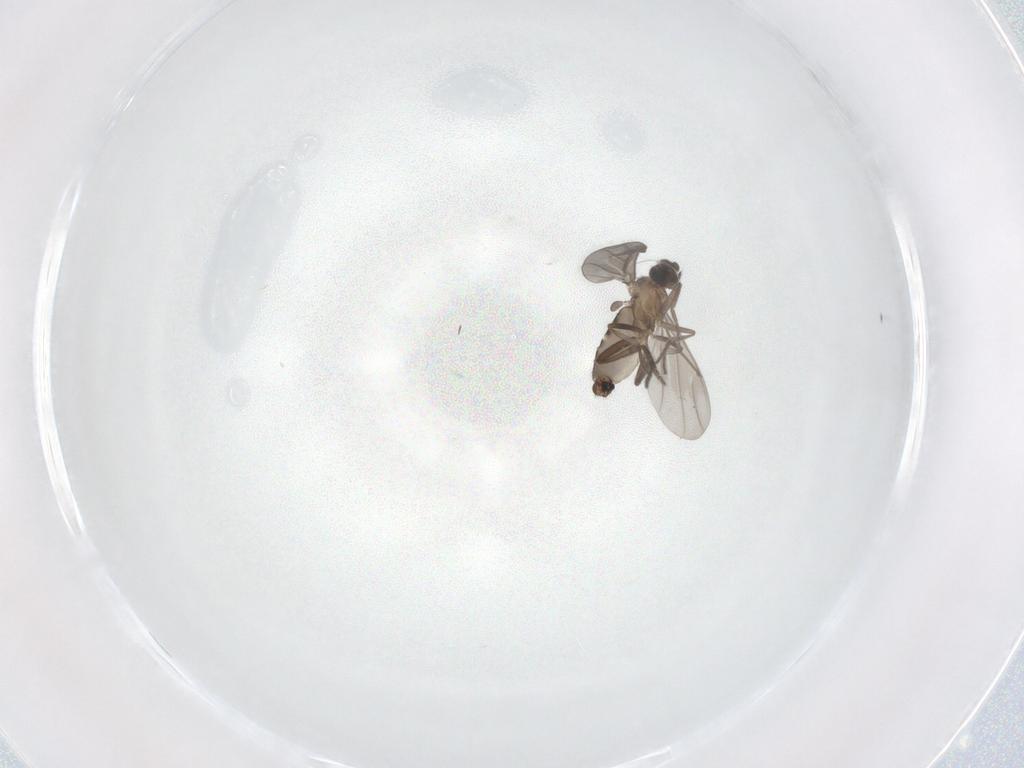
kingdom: Animalia
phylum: Arthropoda
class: Insecta
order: Diptera
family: Phoridae
